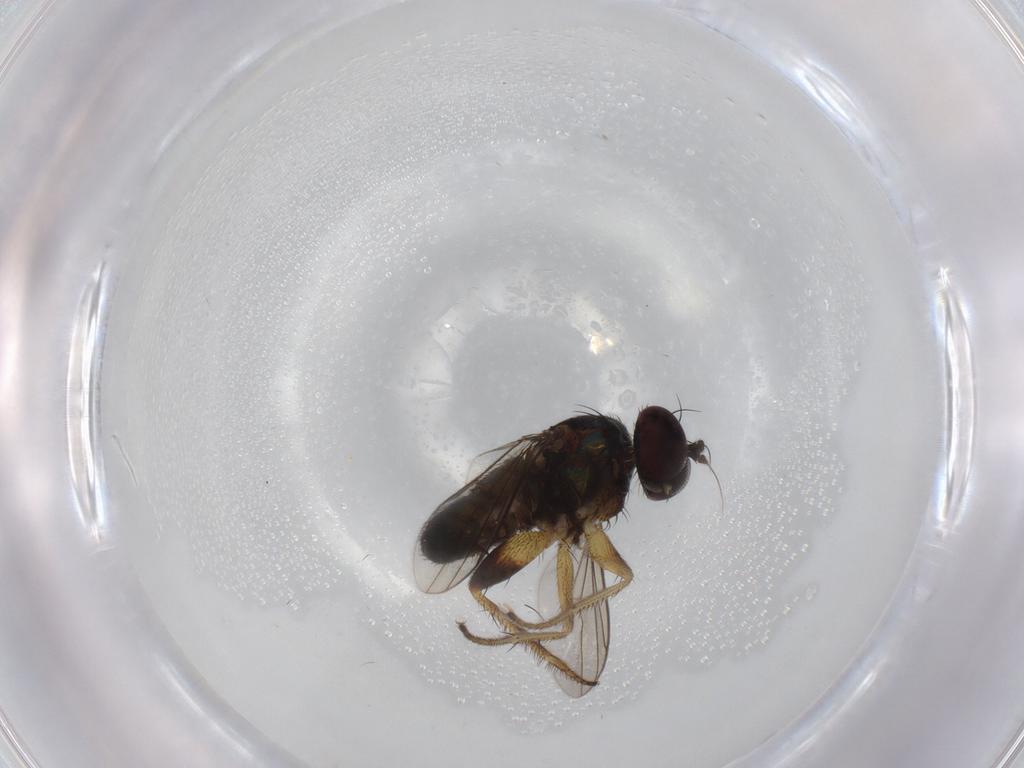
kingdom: Animalia
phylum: Arthropoda
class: Insecta
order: Diptera
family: Dolichopodidae
